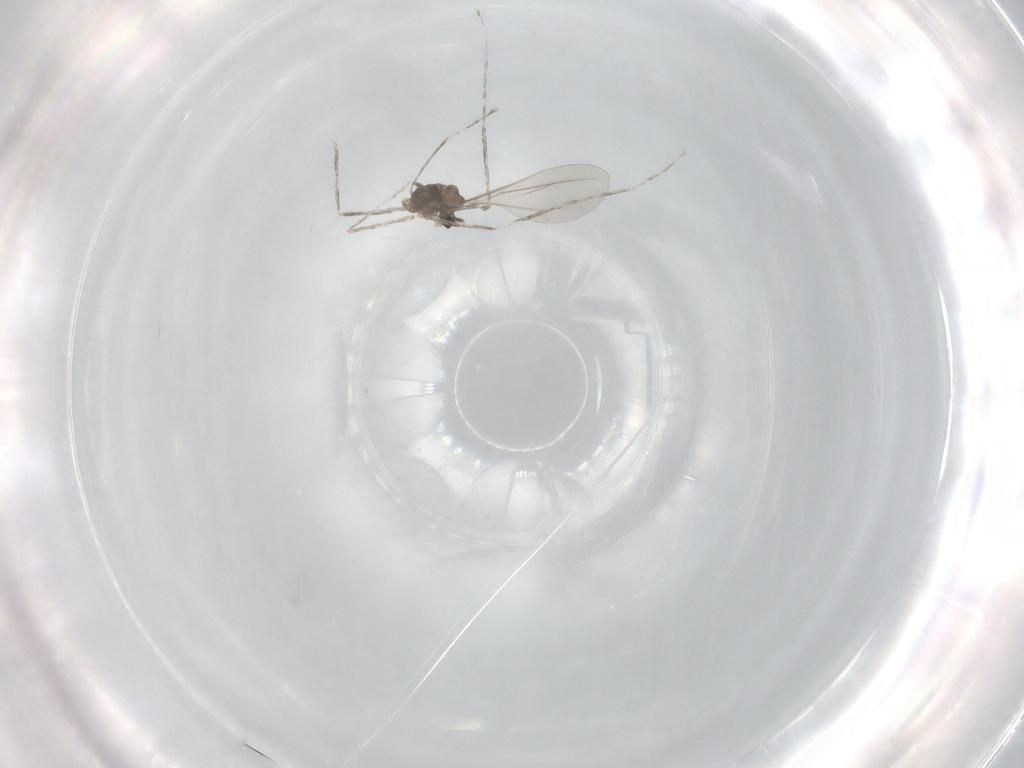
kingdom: Animalia
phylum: Arthropoda
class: Insecta
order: Diptera
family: Cecidomyiidae
